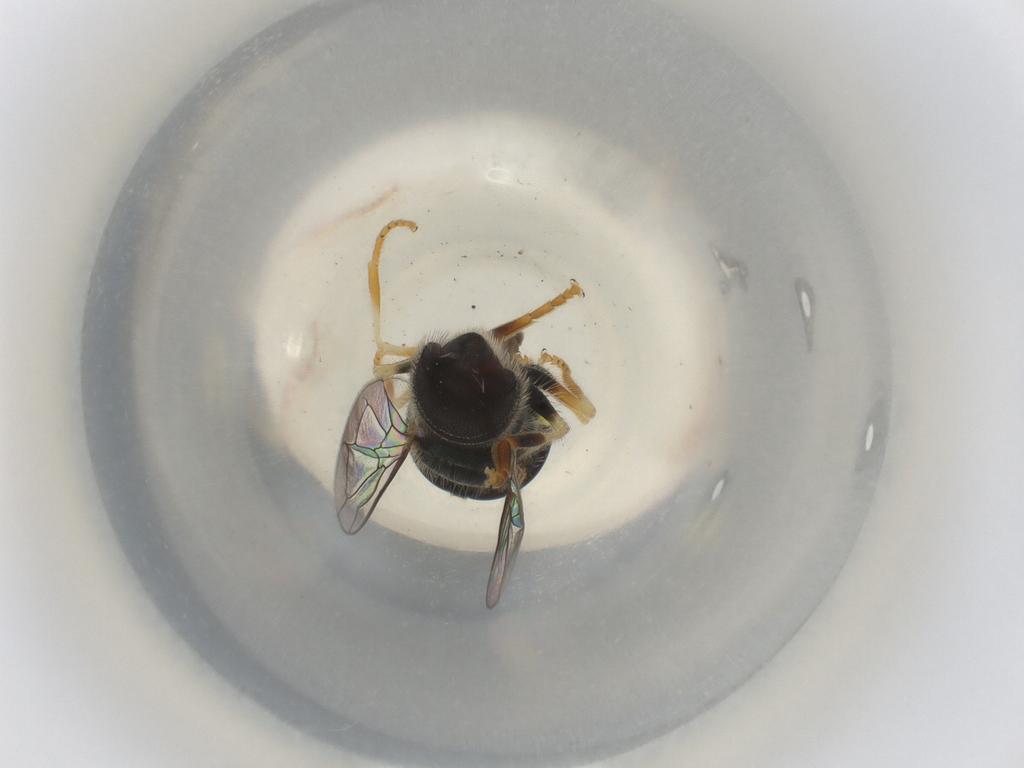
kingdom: Animalia
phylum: Arthropoda
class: Insecta
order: Diptera
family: Syrphidae
